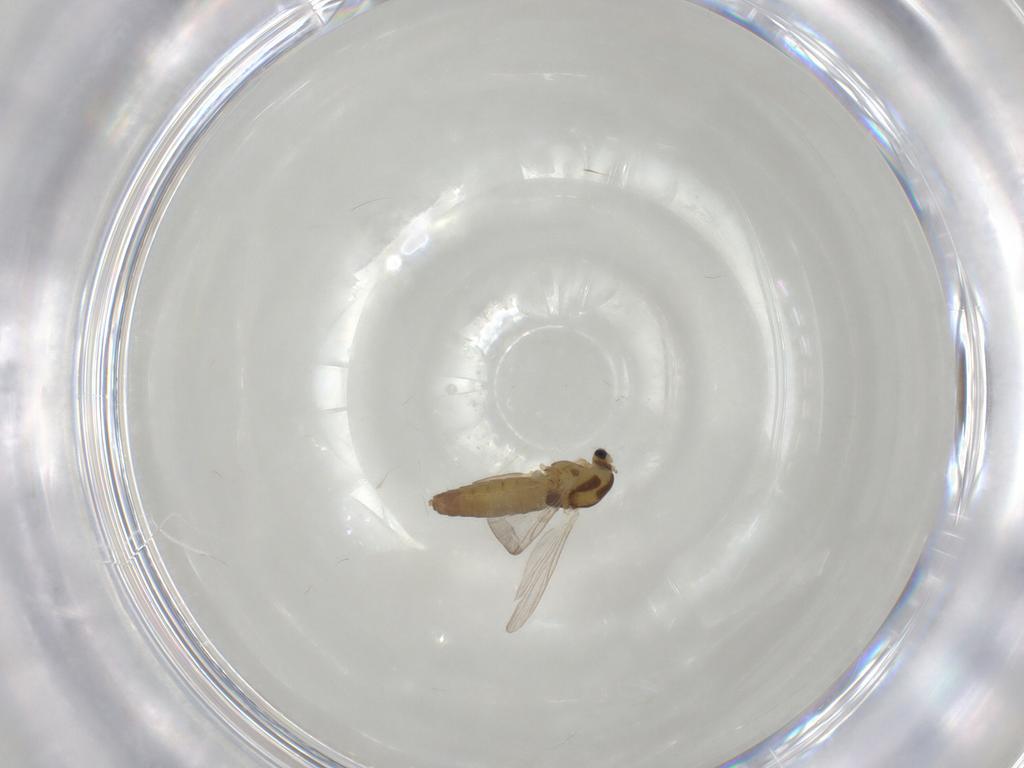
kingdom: Animalia
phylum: Arthropoda
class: Insecta
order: Diptera
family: Chironomidae
